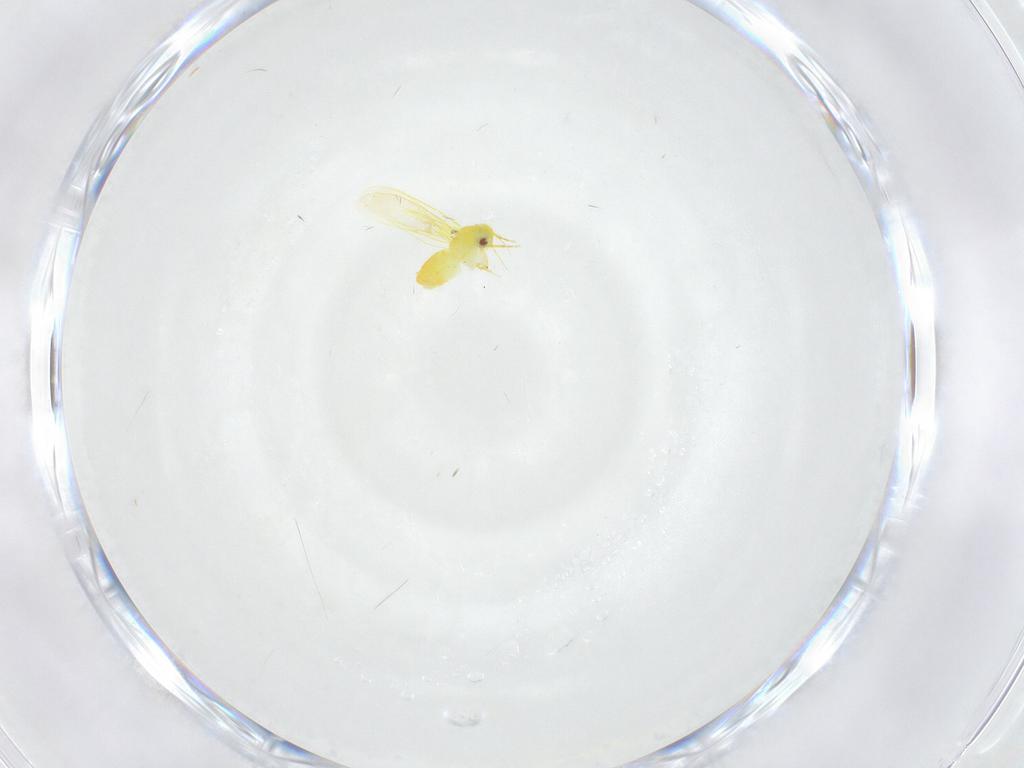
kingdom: Animalia
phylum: Arthropoda
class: Insecta
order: Hemiptera
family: Aleyrodidae
